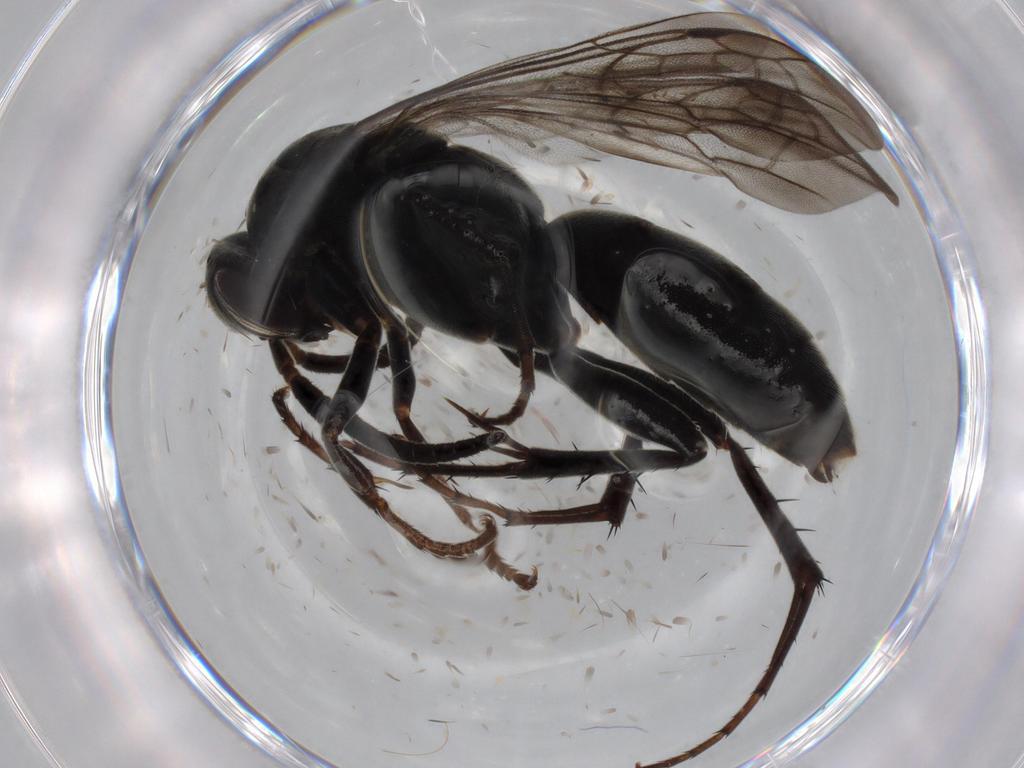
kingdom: Animalia
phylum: Arthropoda
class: Insecta
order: Hymenoptera
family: Pompilidae
